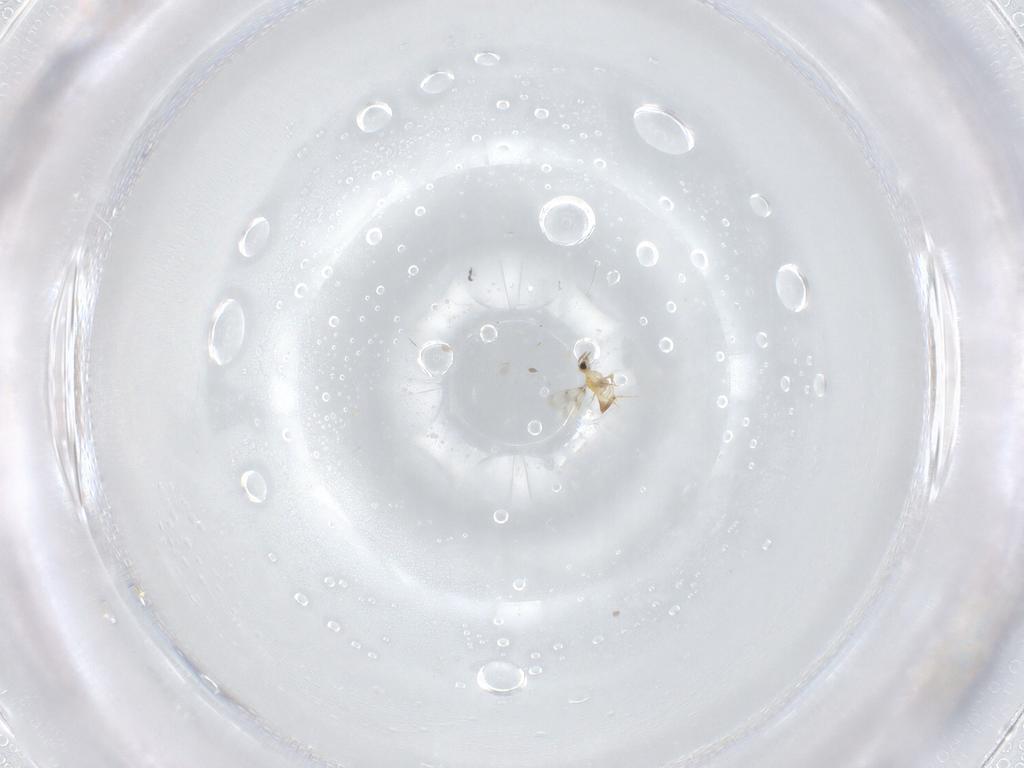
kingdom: Animalia
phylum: Arthropoda
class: Insecta
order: Hymenoptera
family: Trichogrammatidae
